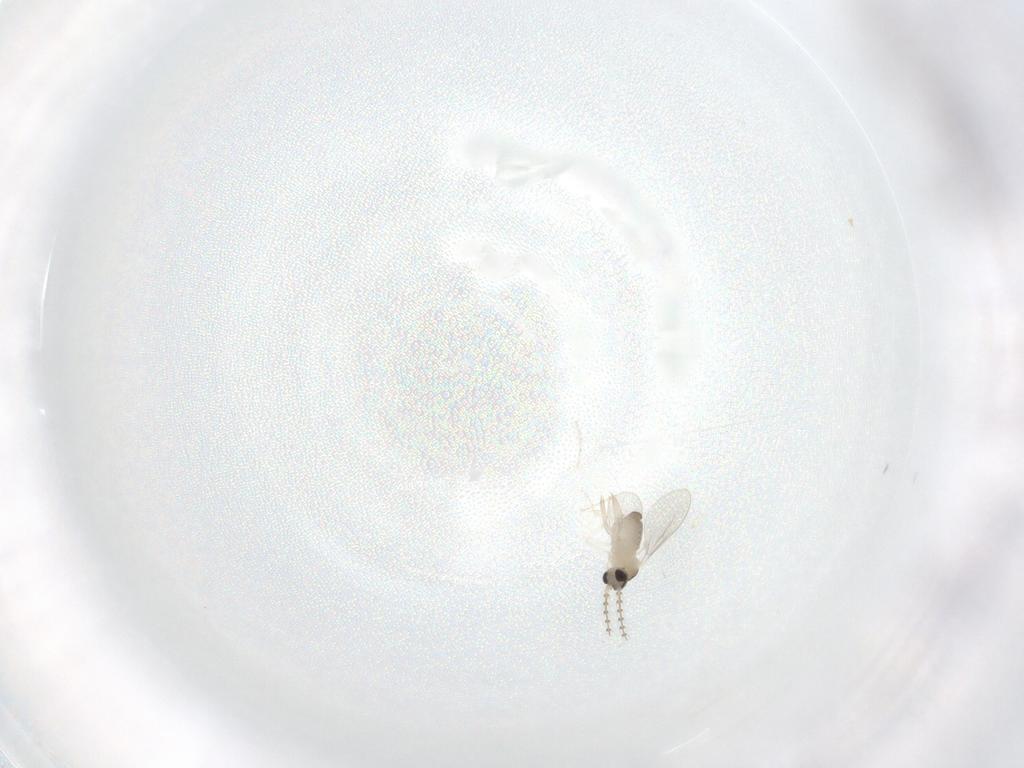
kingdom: Animalia
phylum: Arthropoda
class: Insecta
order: Diptera
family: Cecidomyiidae
